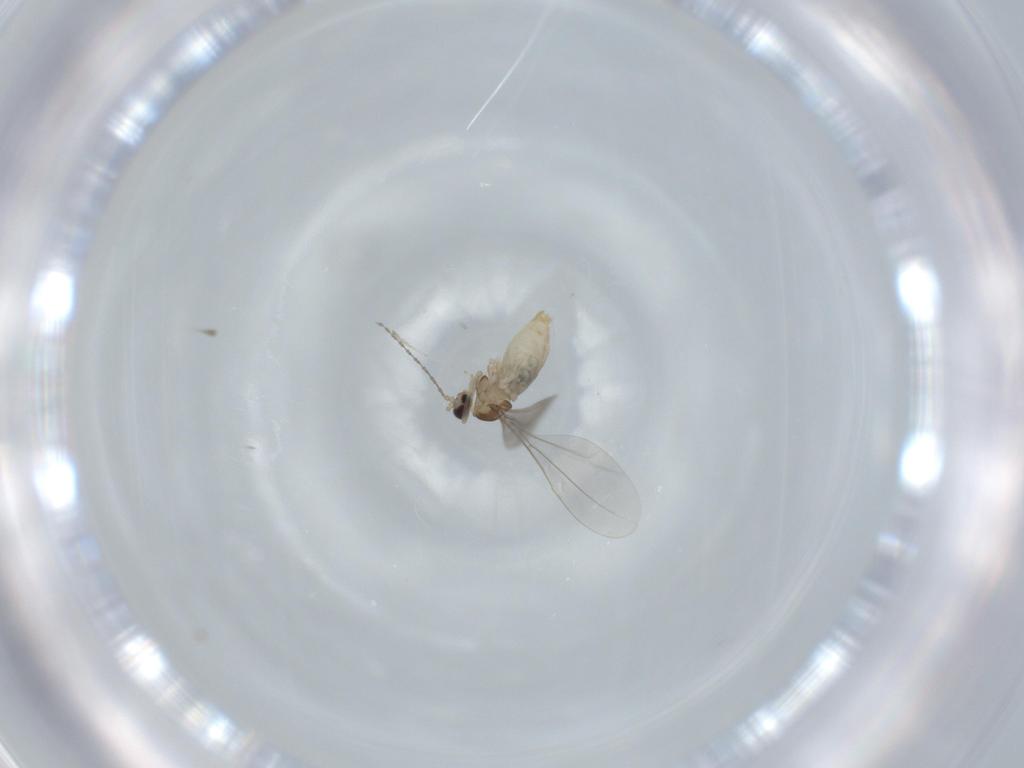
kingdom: Animalia
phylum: Arthropoda
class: Insecta
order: Diptera
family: Cecidomyiidae
